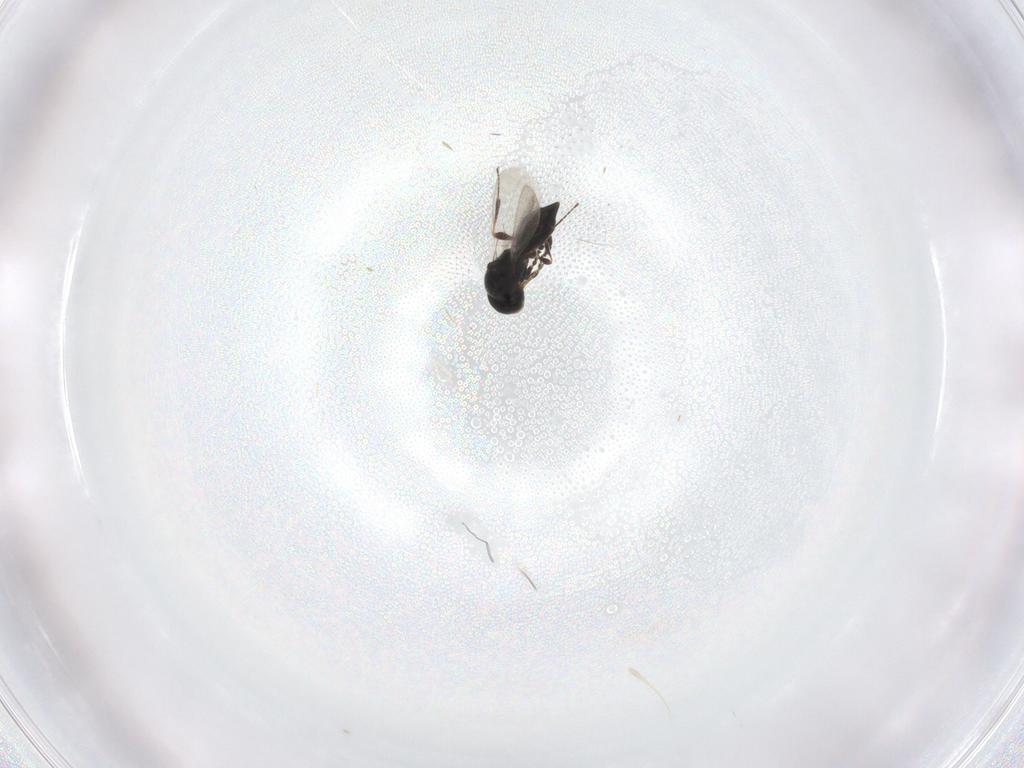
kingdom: Animalia
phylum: Arthropoda
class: Insecta
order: Hymenoptera
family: Platygastridae
